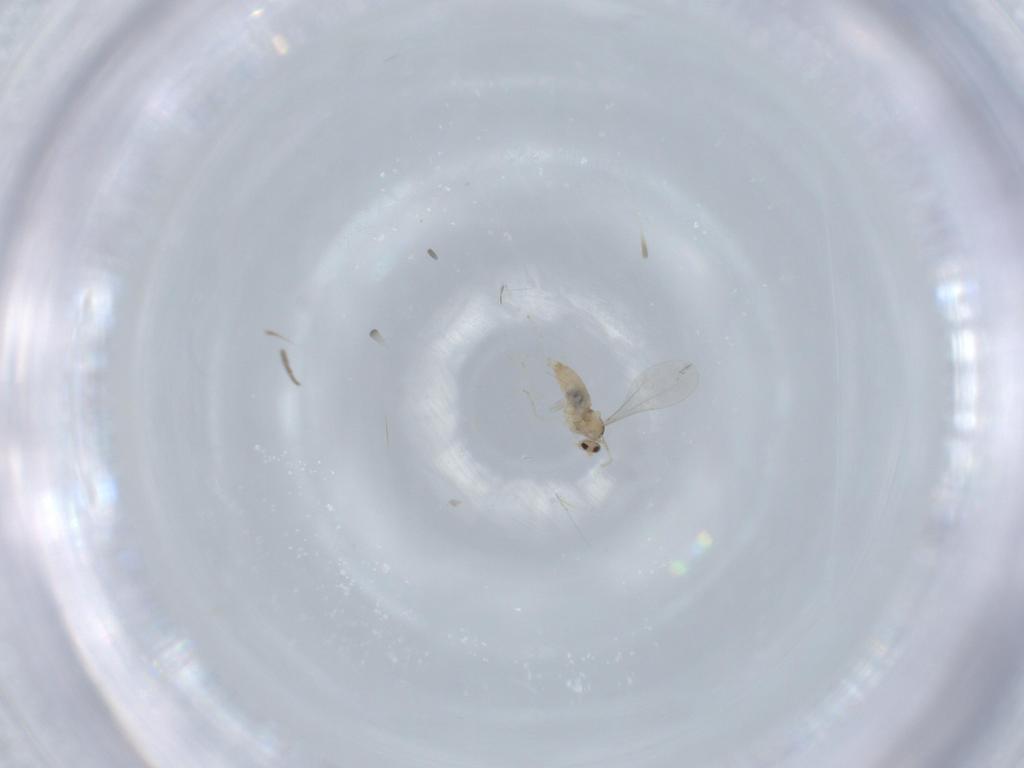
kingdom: Animalia
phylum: Arthropoda
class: Insecta
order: Diptera
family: Cecidomyiidae
